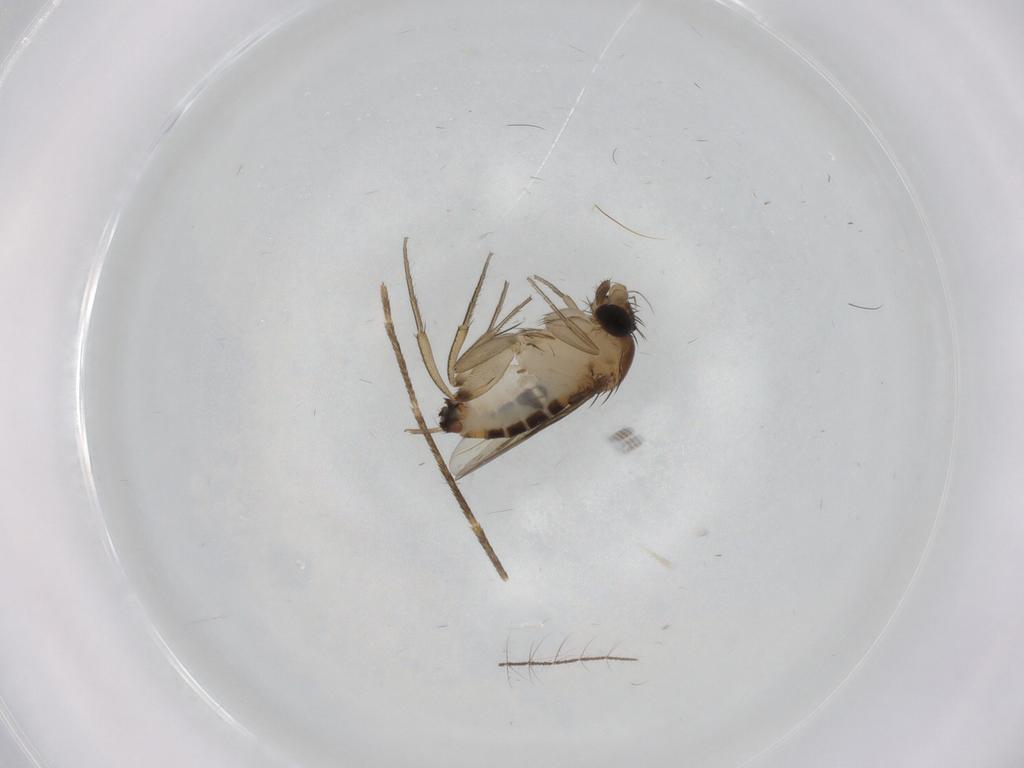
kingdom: Animalia
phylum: Arthropoda
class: Insecta
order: Diptera
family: Phoridae
